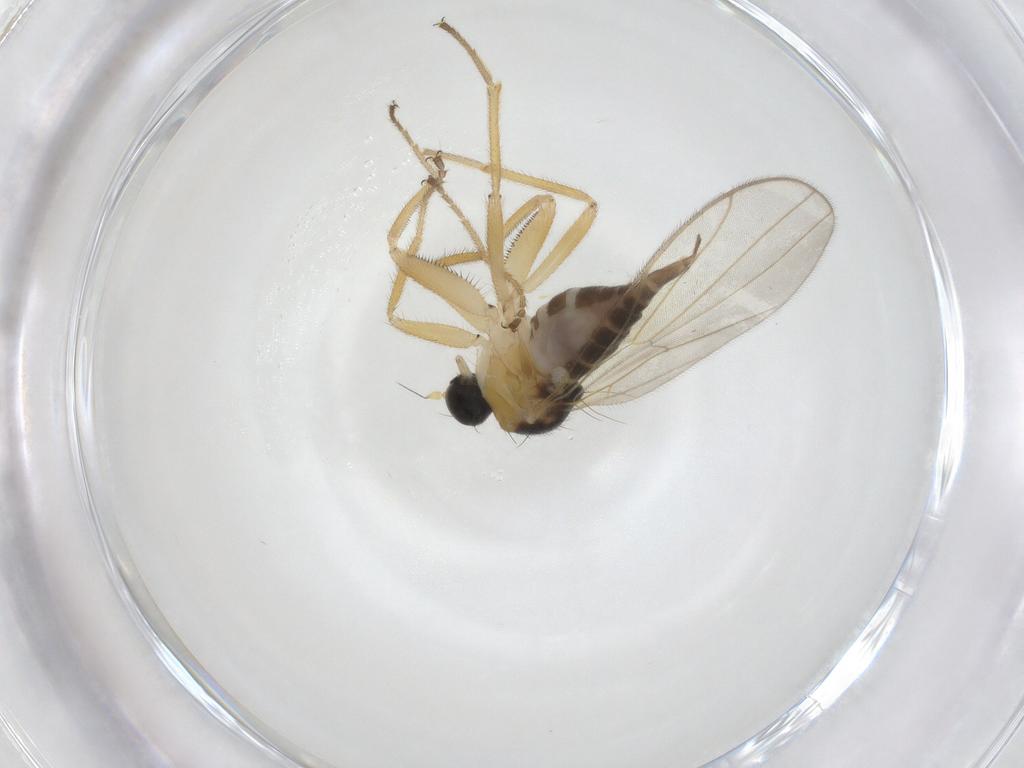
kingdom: Animalia
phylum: Arthropoda
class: Insecta
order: Diptera
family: Hybotidae
